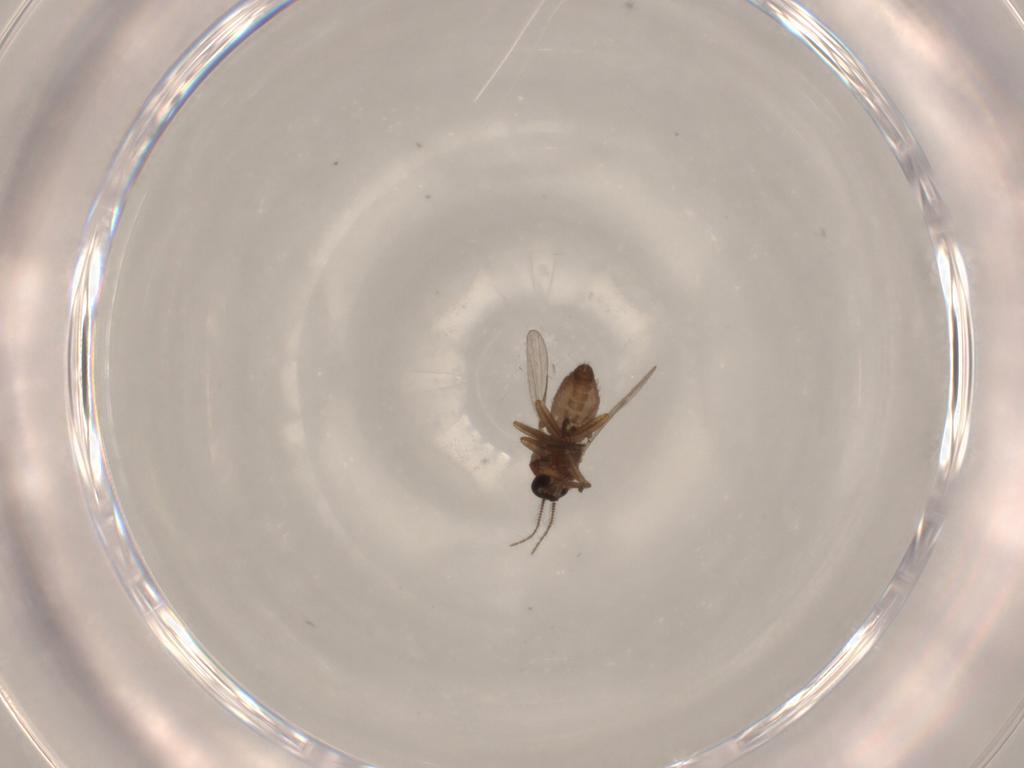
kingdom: Animalia
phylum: Arthropoda
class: Insecta
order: Diptera
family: Ceratopogonidae
